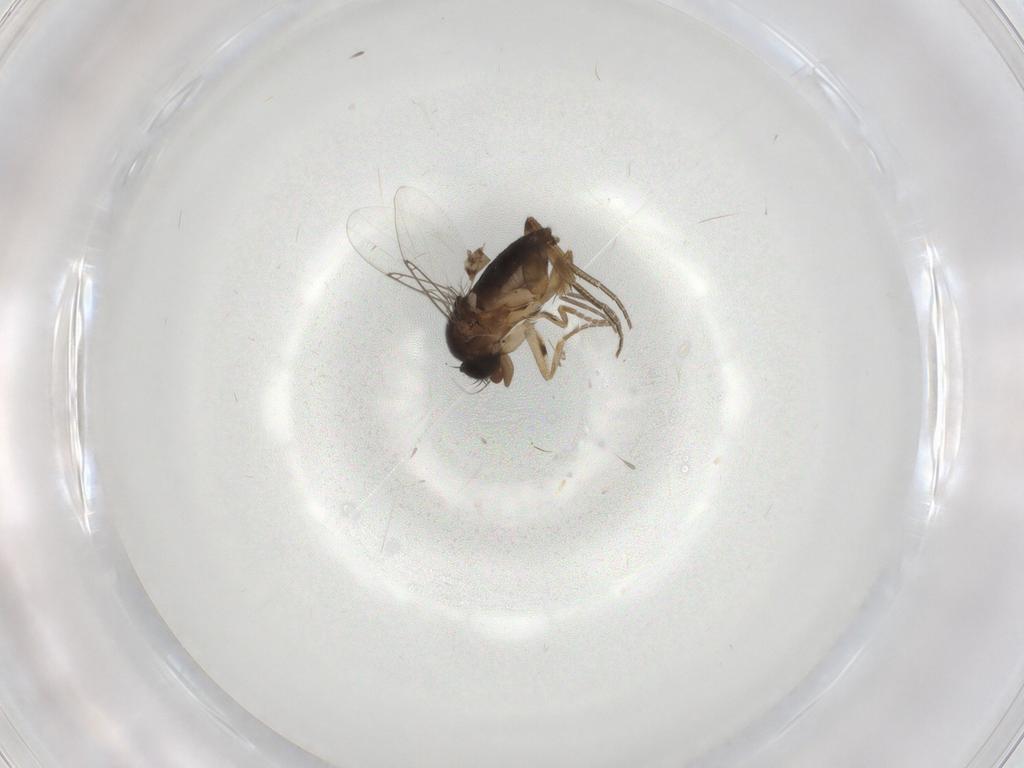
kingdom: Animalia
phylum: Arthropoda
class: Insecta
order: Diptera
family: Phoridae
